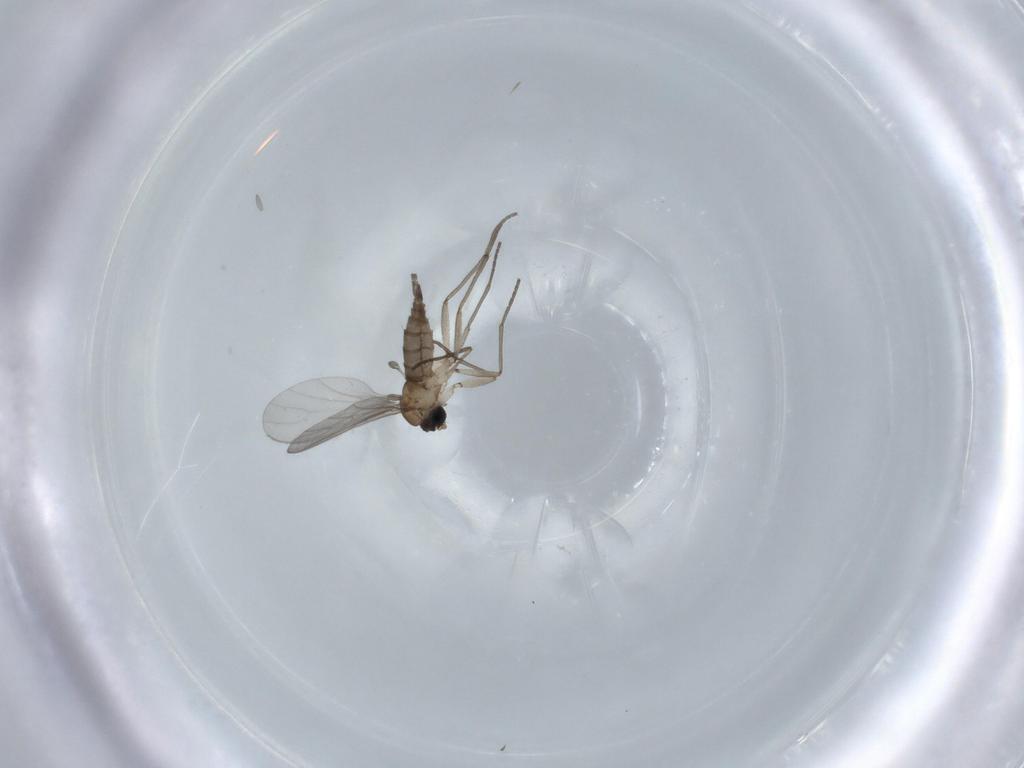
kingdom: Animalia
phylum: Arthropoda
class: Insecta
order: Diptera
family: Sciaridae
